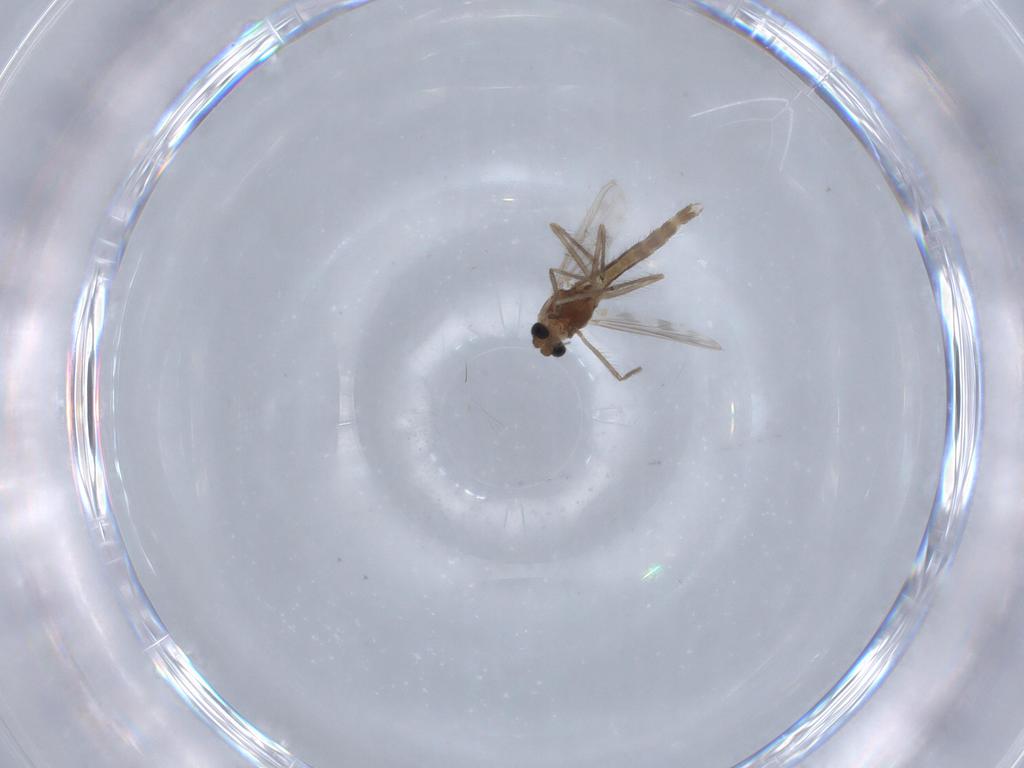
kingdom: Animalia
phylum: Arthropoda
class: Insecta
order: Diptera
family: Chironomidae
